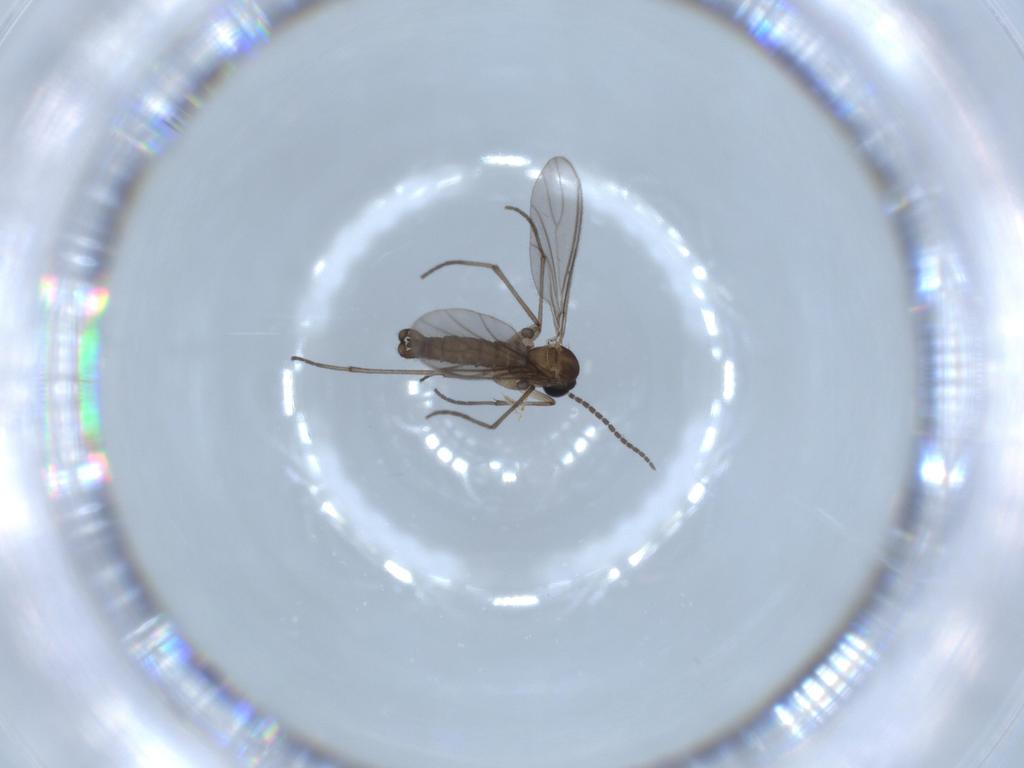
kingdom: Animalia
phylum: Arthropoda
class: Insecta
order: Diptera
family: Sciaridae
